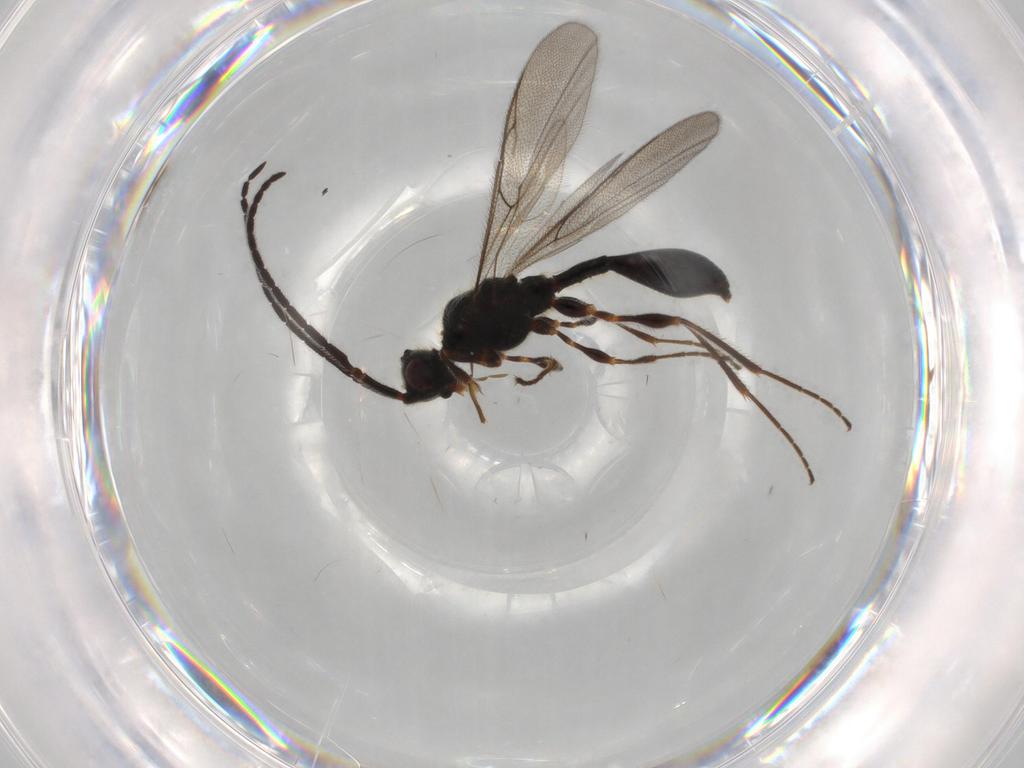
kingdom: Animalia
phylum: Arthropoda
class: Insecta
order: Hymenoptera
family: Diapriidae
